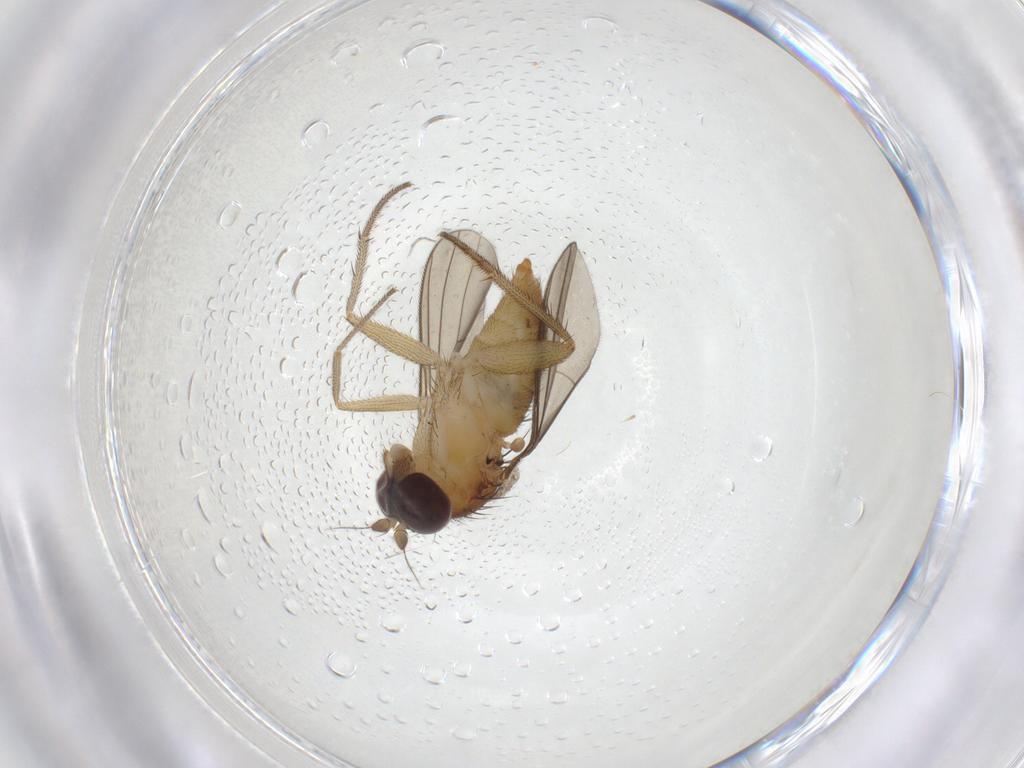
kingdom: Animalia
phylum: Arthropoda
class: Insecta
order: Diptera
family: Dolichopodidae
